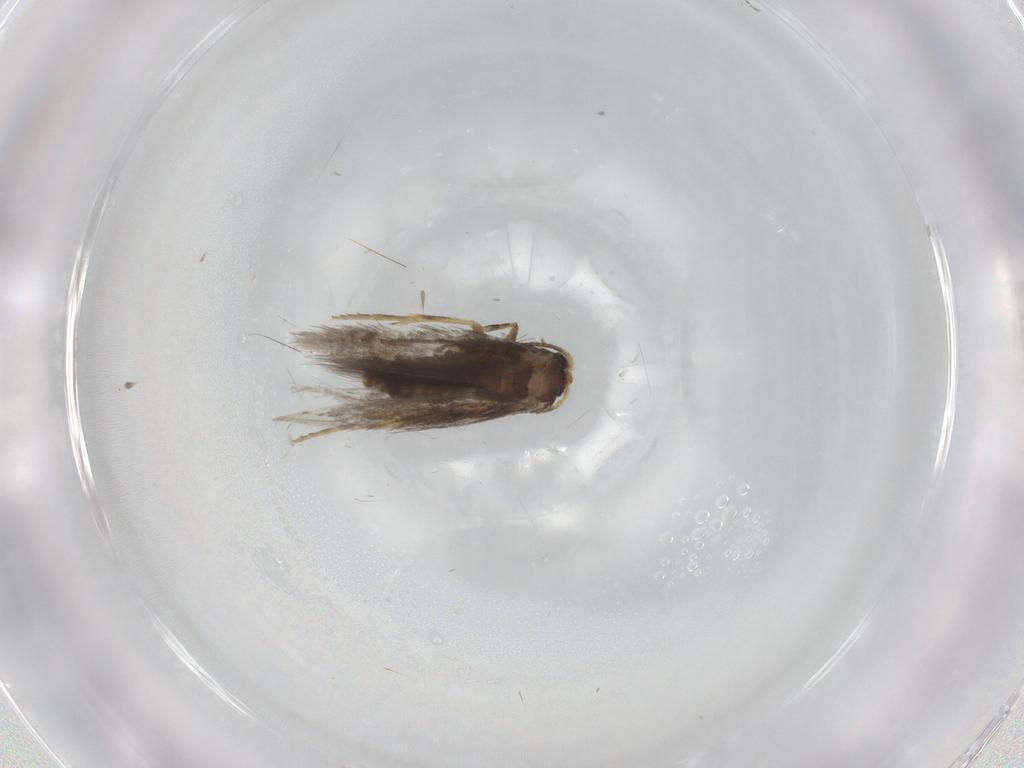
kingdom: Animalia
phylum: Arthropoda
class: Insecta
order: Lepidoptera
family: Nepticulidae
